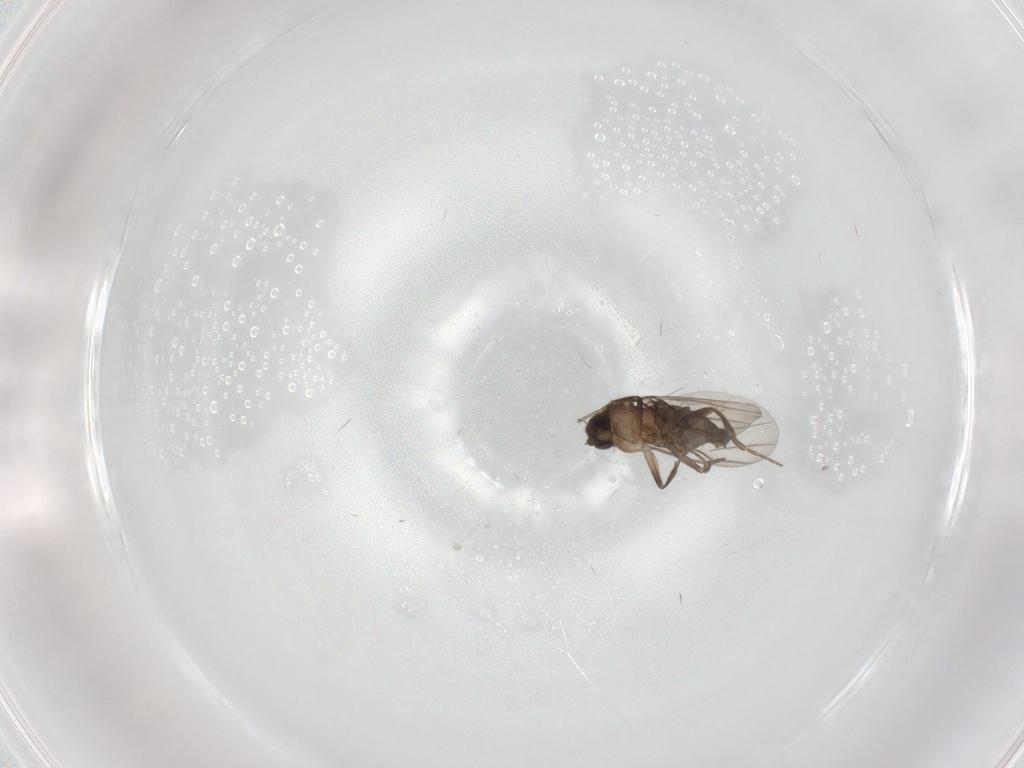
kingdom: Animalia
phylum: Arthropoda
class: Insecta
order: Diptera
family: Phoridae
